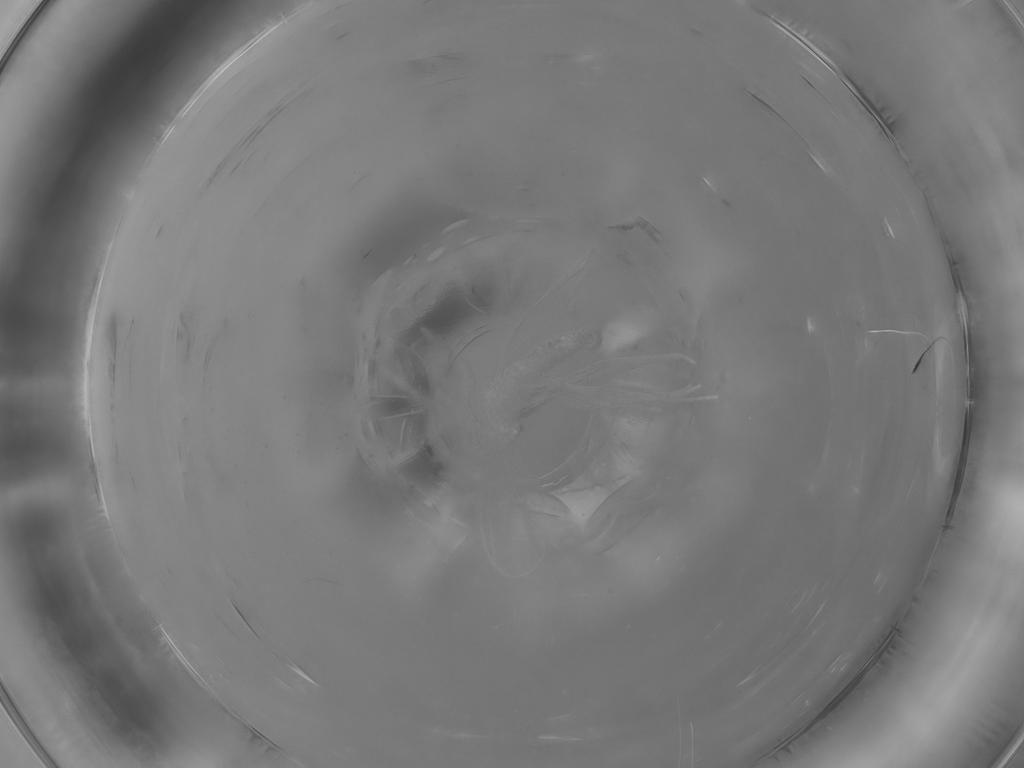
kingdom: Animalia
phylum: Arthropoda
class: Insecta
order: Diptera
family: Sciaridae
